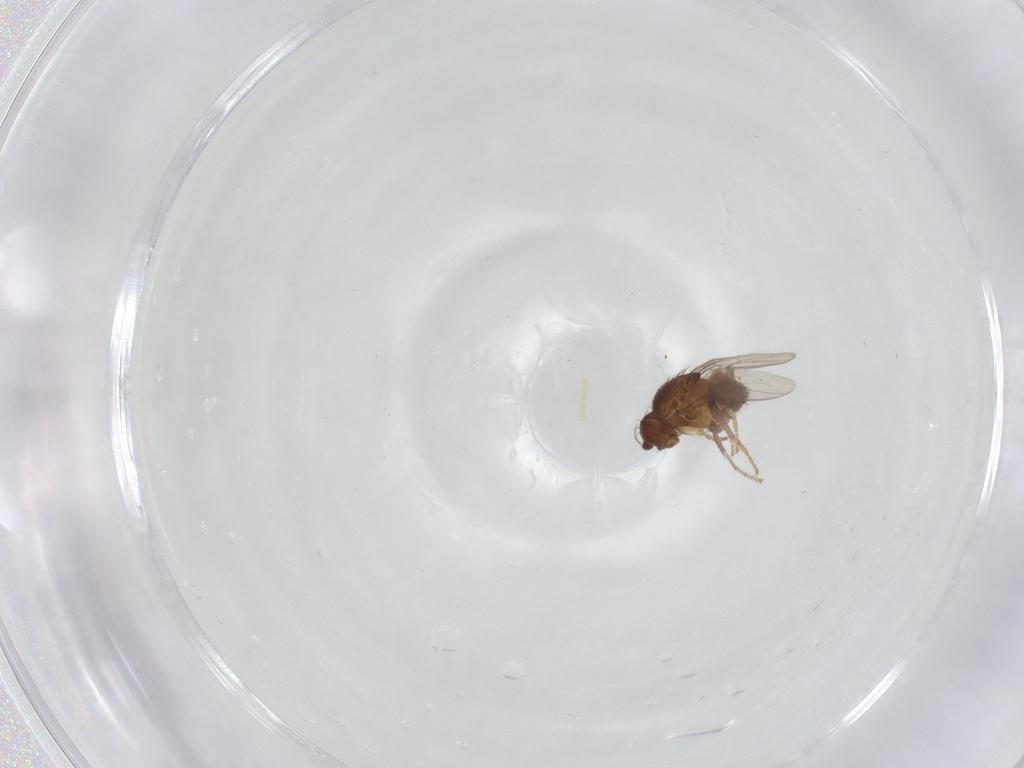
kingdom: Animalia
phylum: Arthropoda
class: Insecta
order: Diptera
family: Sphaeroceridae
